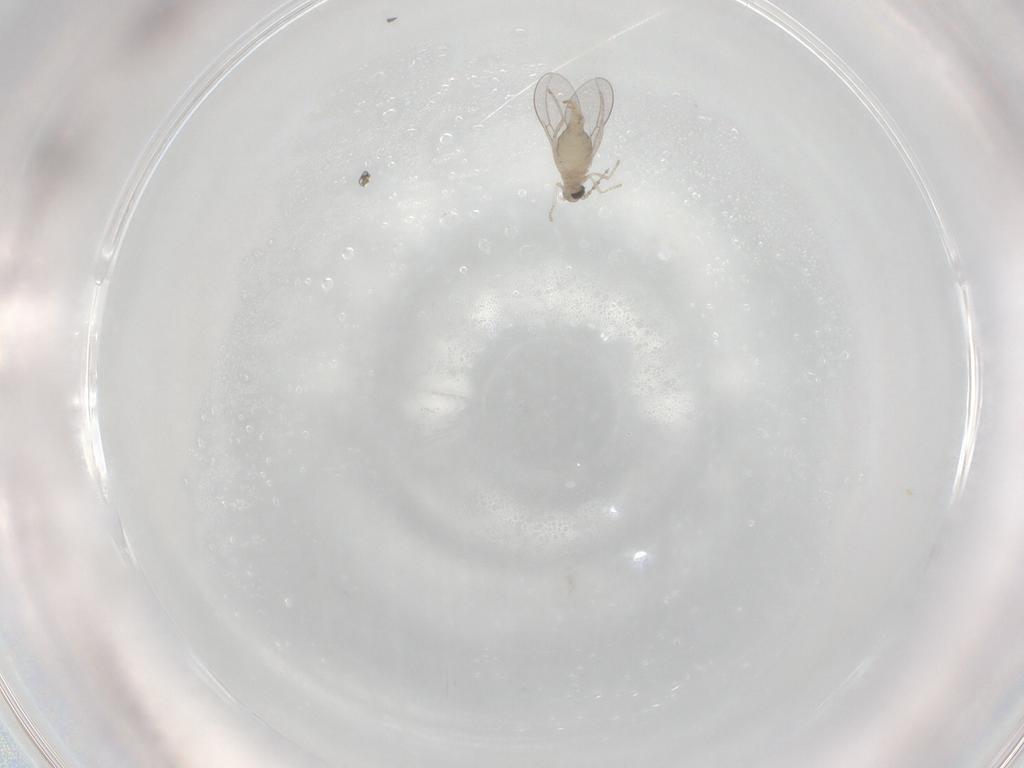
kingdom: Animalia
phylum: Arthropoda
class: Insecta
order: Diptera
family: Cecidomyiidae
